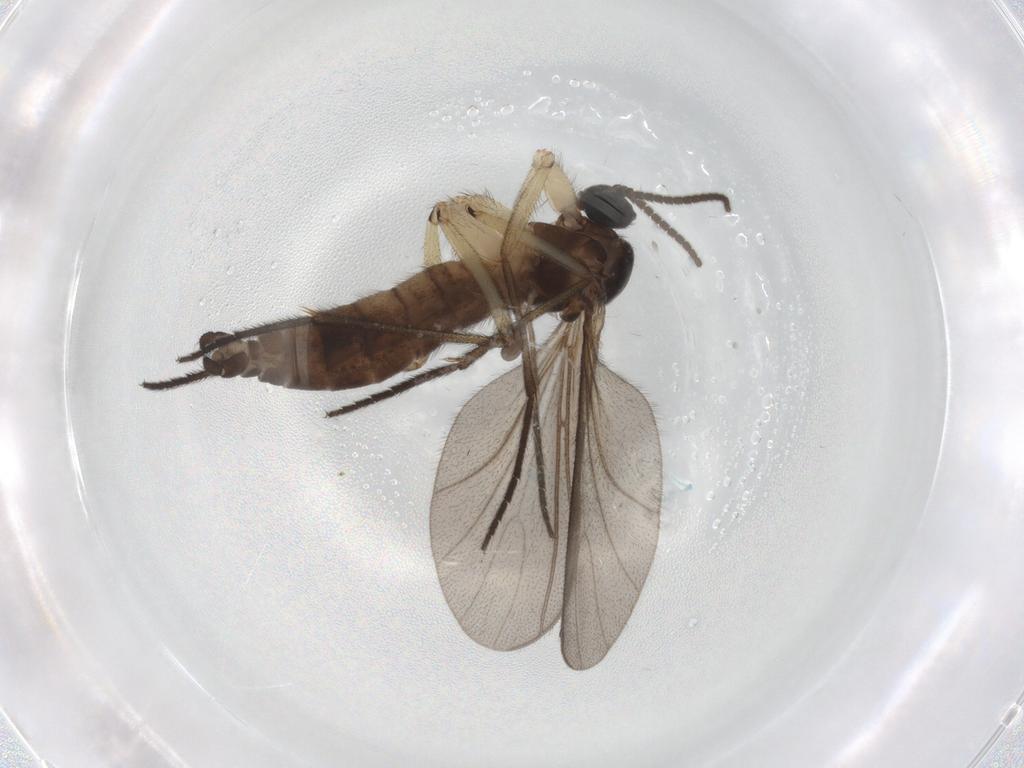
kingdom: Animalia
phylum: Arthropoda
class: Insecta
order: Diptera
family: Sciaridae
